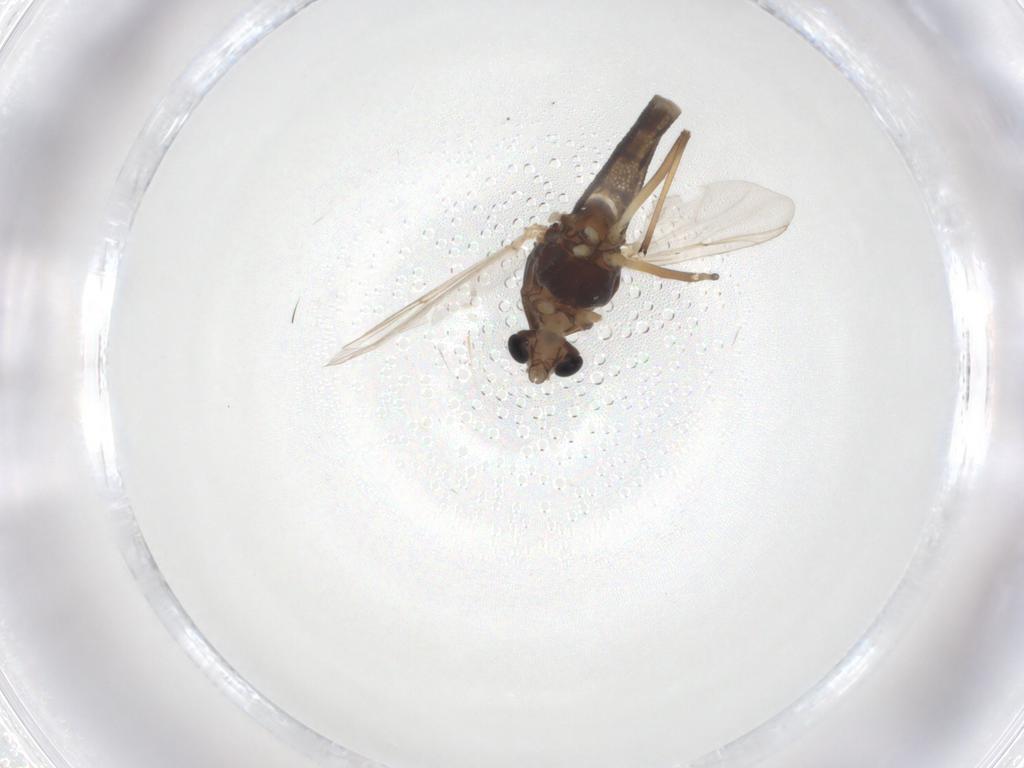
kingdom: Animalia
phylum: Arthropoda
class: Insecta
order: Diptera
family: Chironomidae
